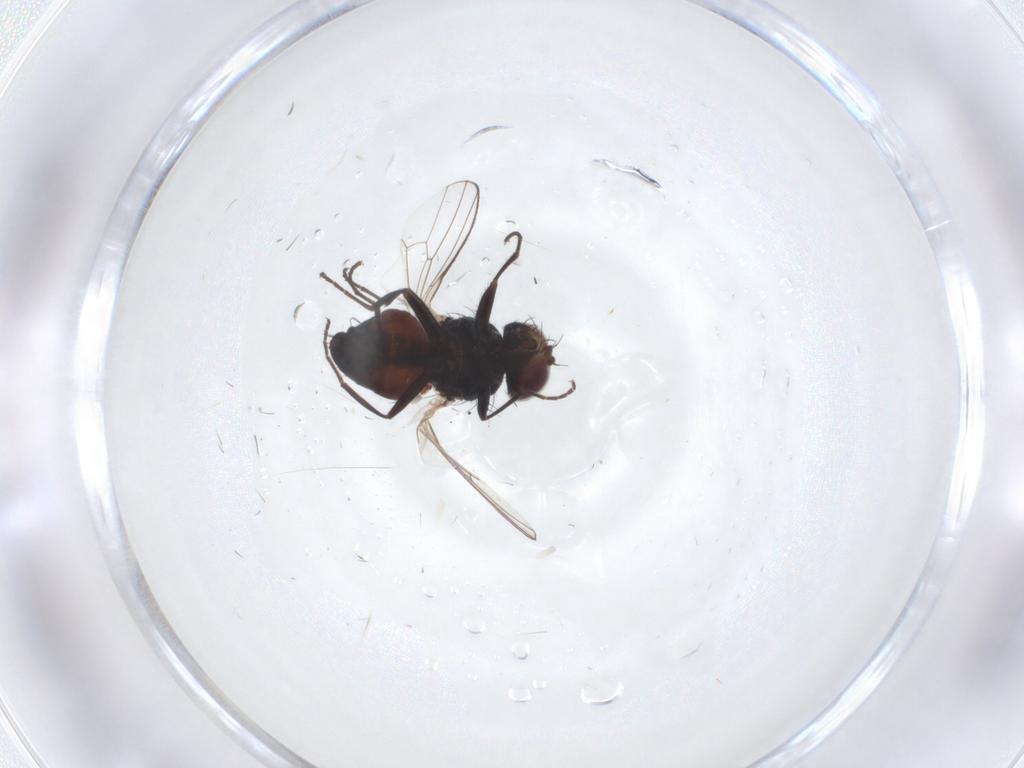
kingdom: Animalia
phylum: Arthropoda
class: Insecta
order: Diptera
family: Carnidae
